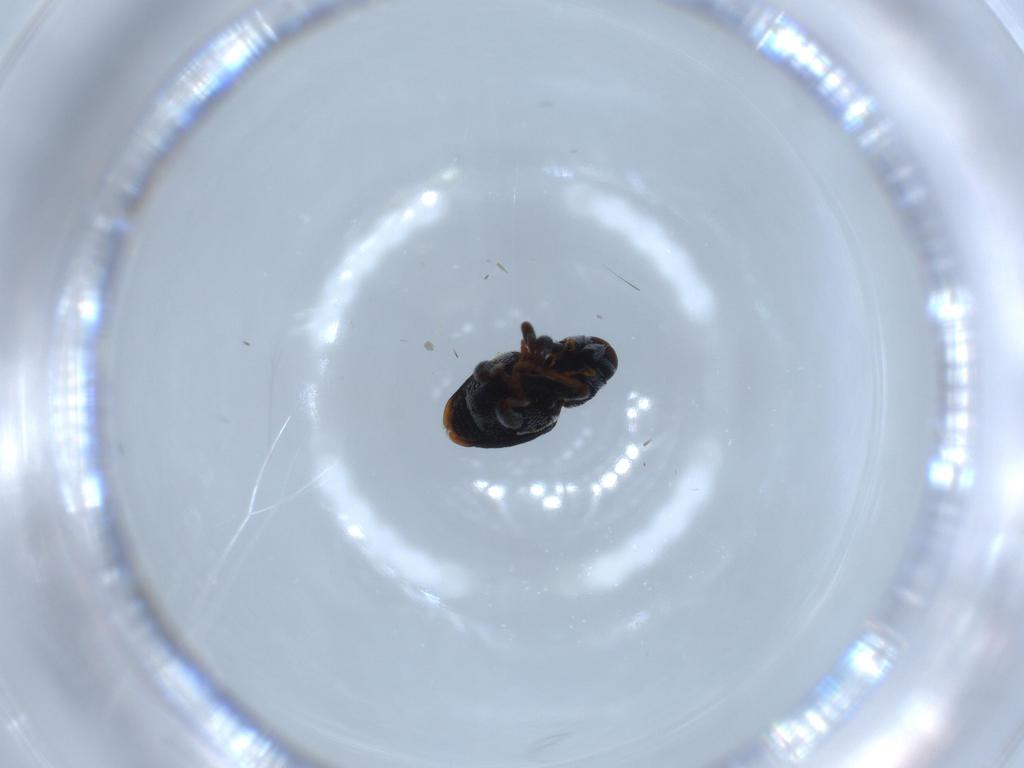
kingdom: Animalia
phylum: Arthropoda
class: Insecta
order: Coleoptera
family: Curculionidae
